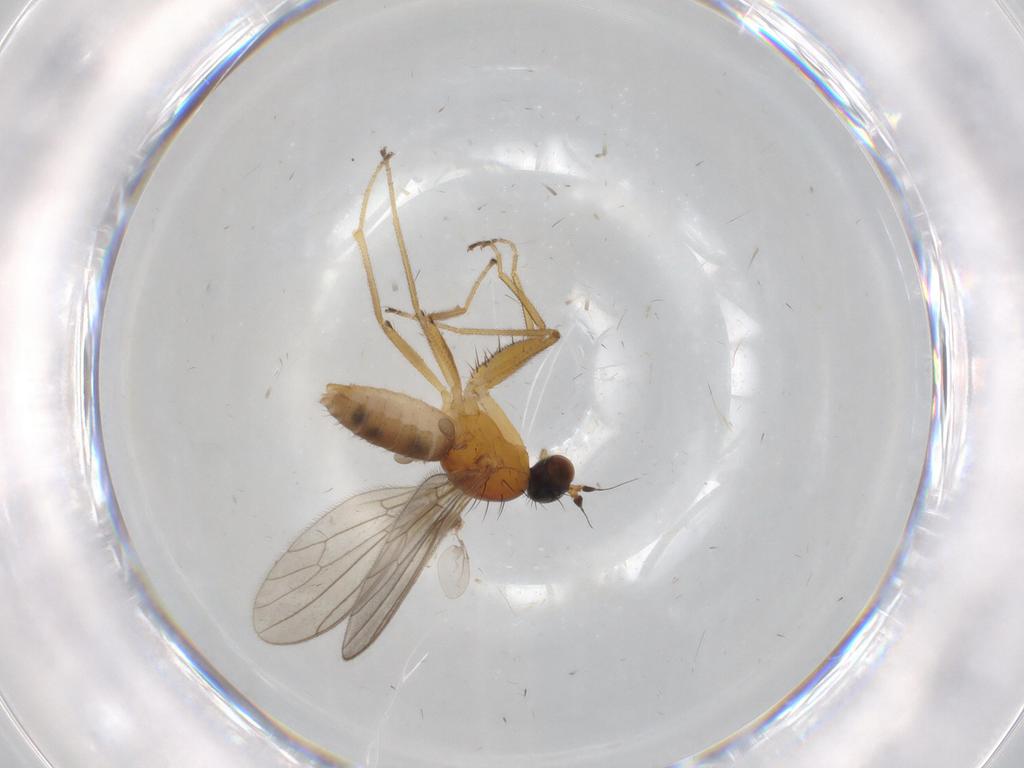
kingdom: Animalia
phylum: Arthropoda
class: Insecta
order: Diptera
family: Empididae
